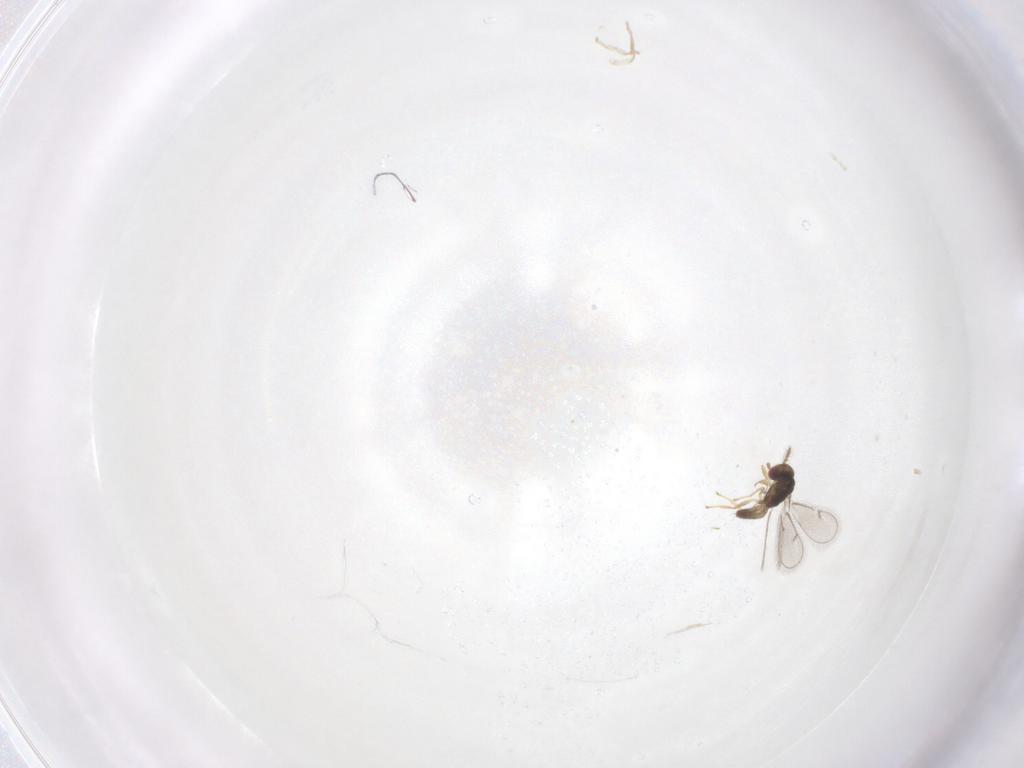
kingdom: Animalia
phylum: Arthropoda
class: Insecta
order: Hymenoptera
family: Eulophidae
